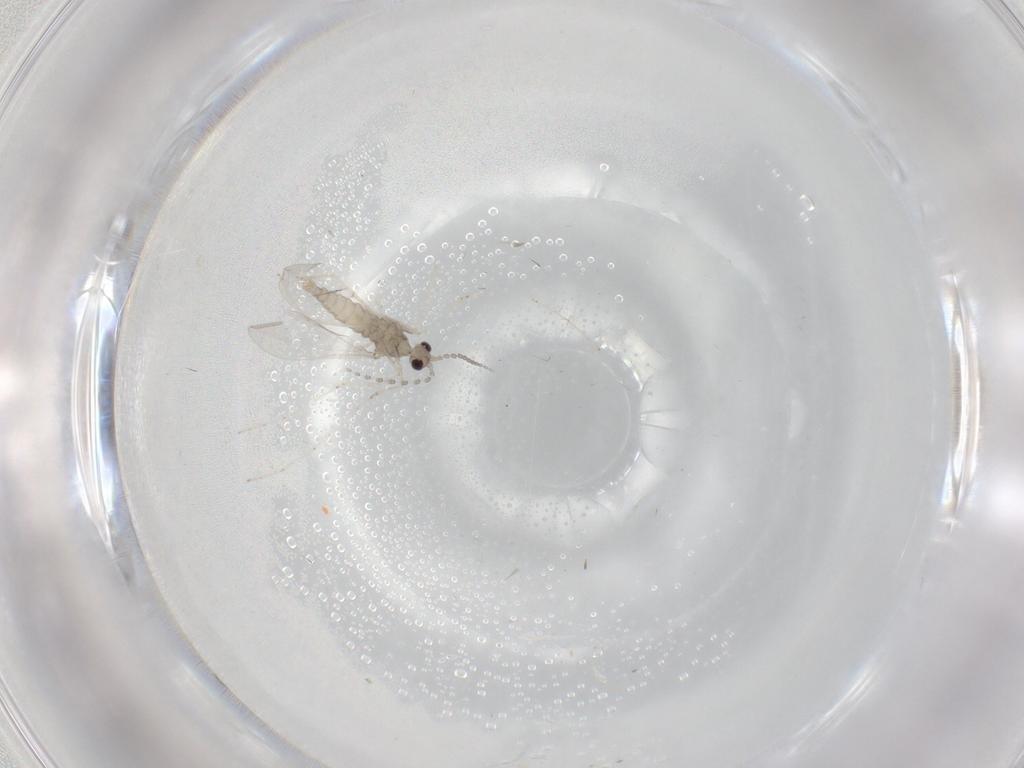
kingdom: Animalia
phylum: Arthropoda
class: Insecta
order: Diptera
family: Cecidomyiidae
